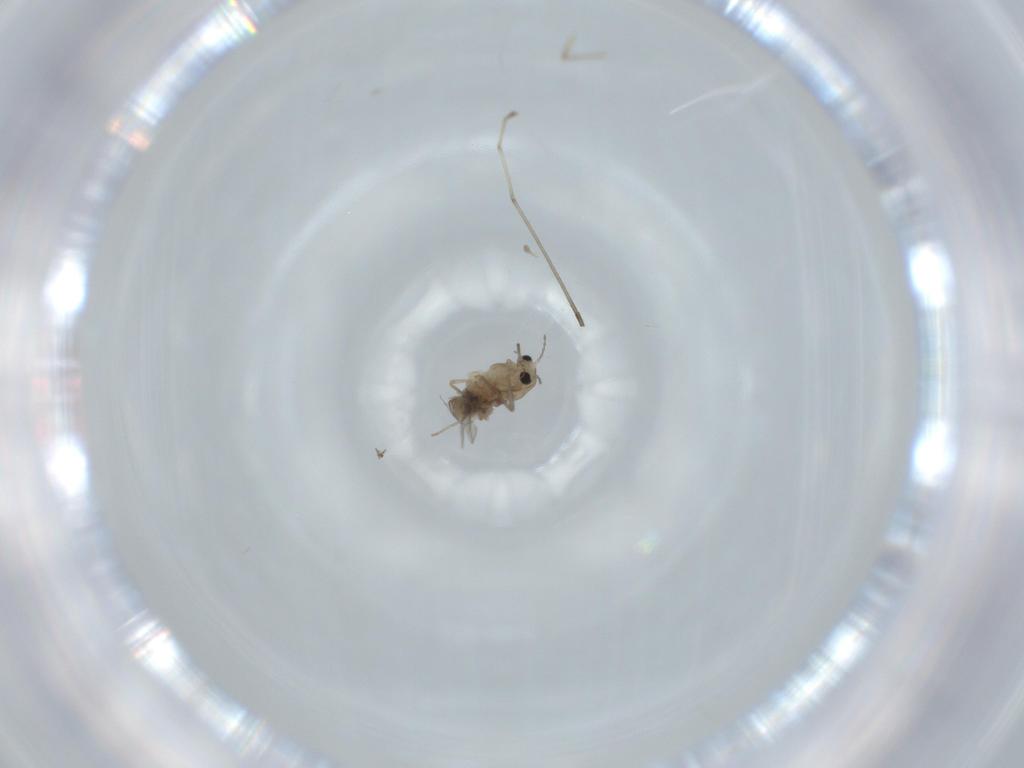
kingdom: Animalia
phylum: Arthropoda
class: Insecta
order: Diptera
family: Chironomidae
